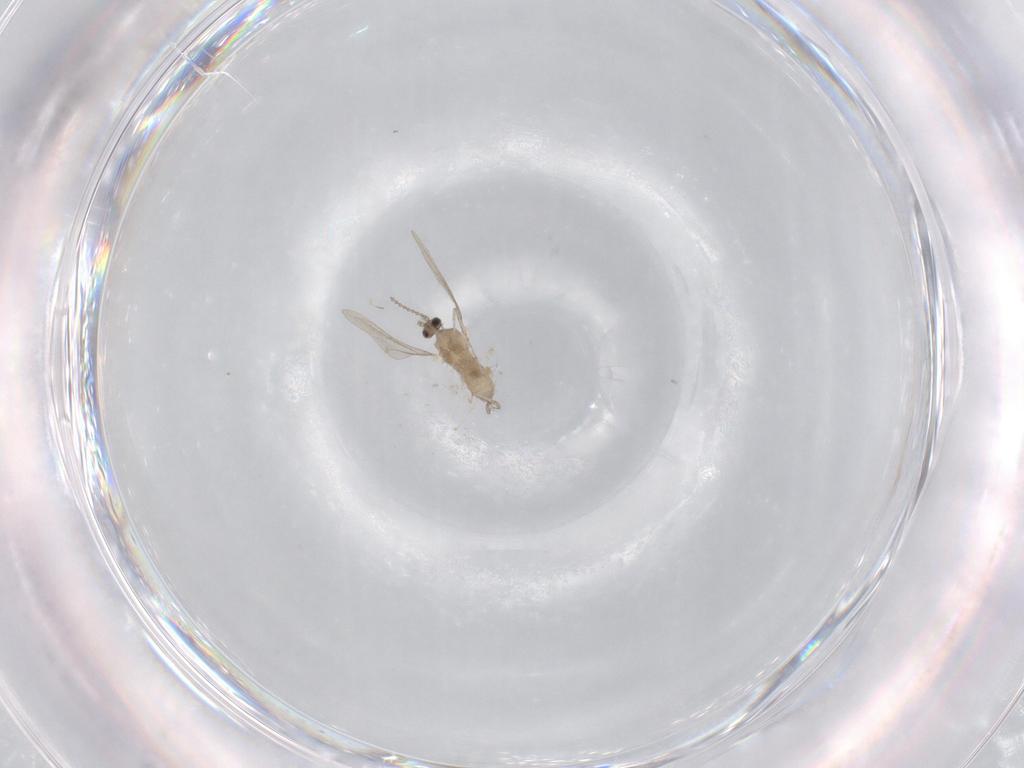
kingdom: Animalia
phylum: Arthropoda
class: Insecta
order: Diptera
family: Cecidomyiidae
